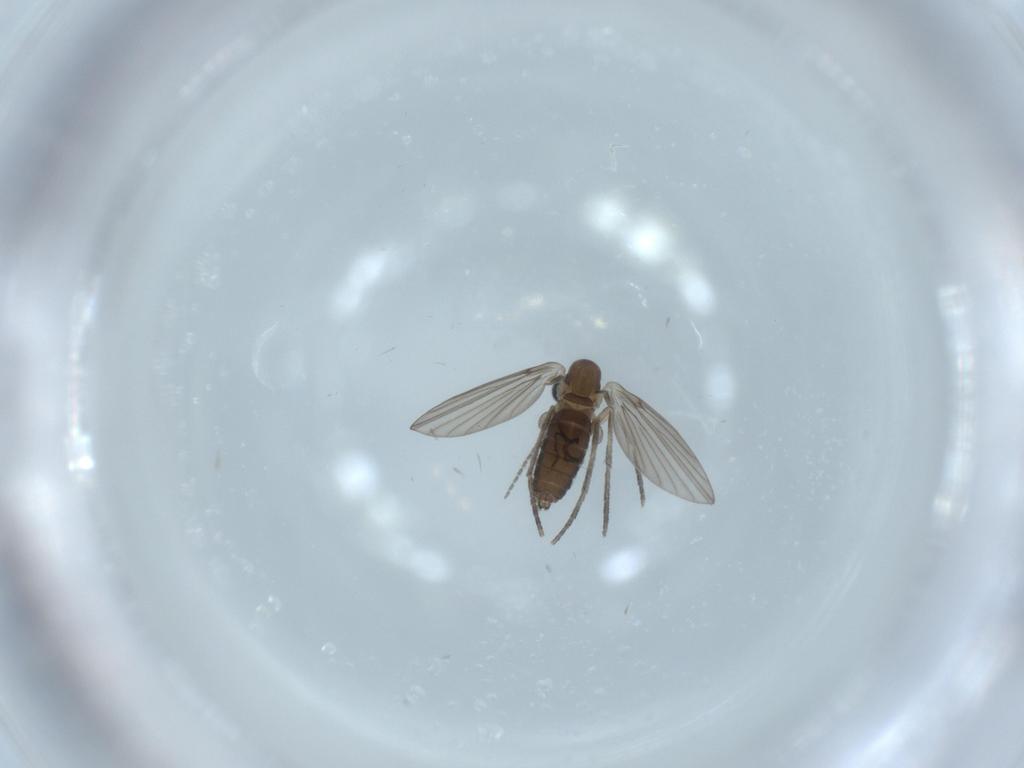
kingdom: Animalia
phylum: Arthropoda
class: Insecta
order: Diptera
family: Psychodidae
